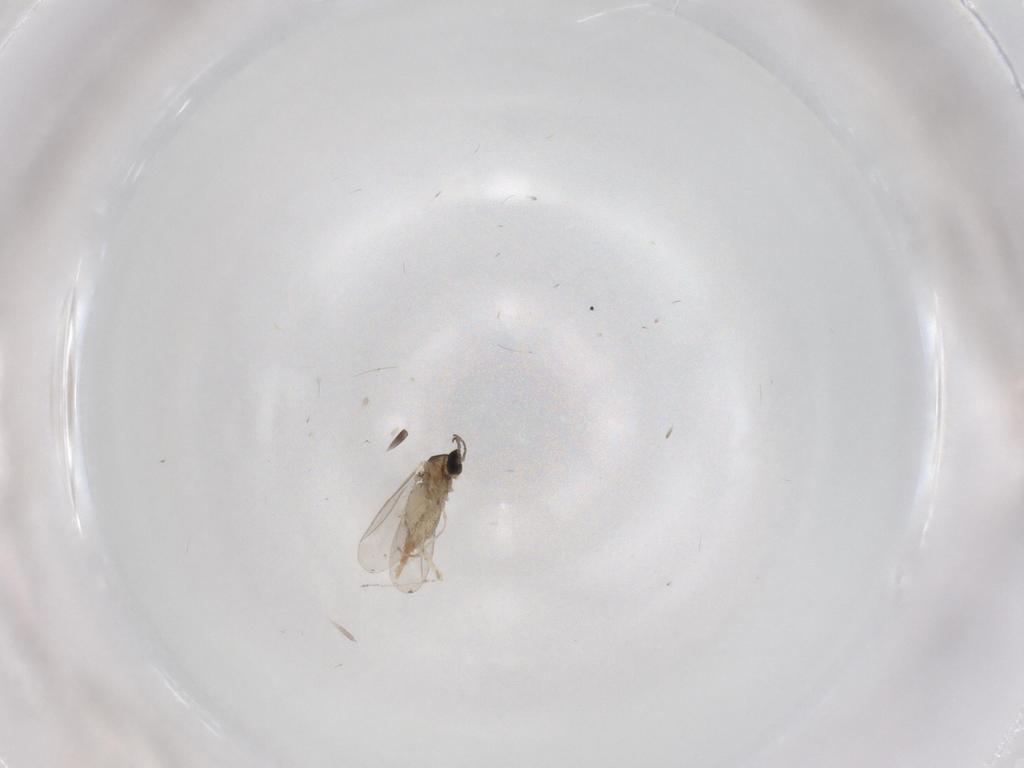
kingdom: Animalia
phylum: Arthropoda
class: Insecta
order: Diptera
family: Cecidomyiidae
